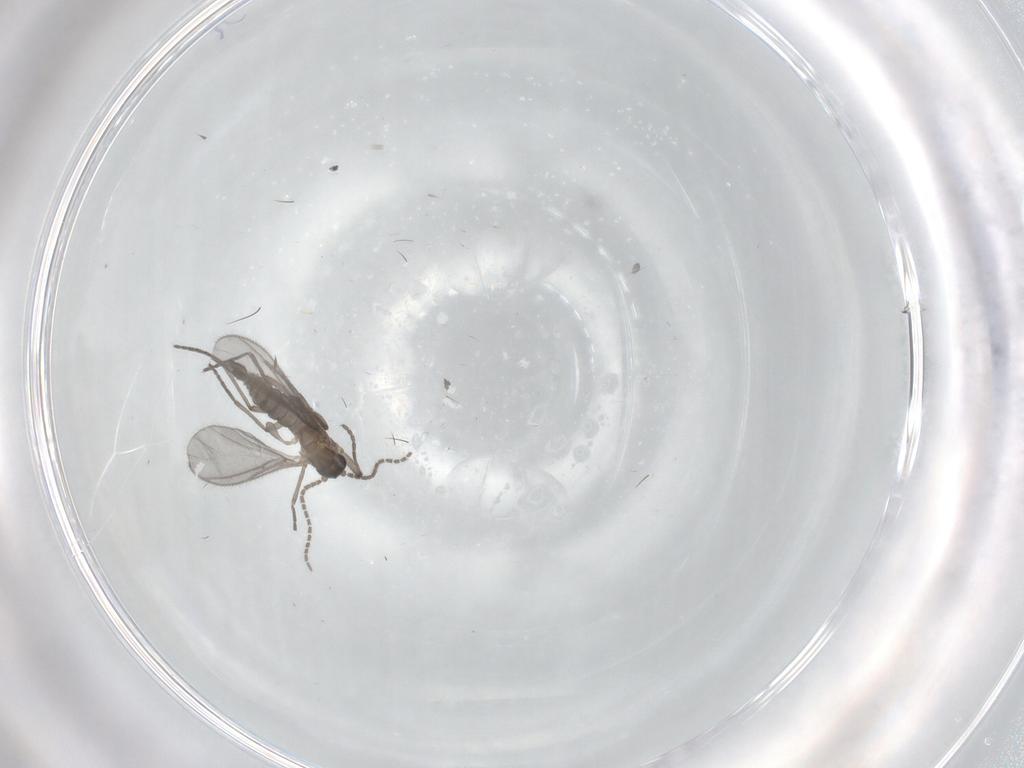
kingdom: Animalia
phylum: Arthropoda
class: Insecta
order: Diptera
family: Sciaridae
